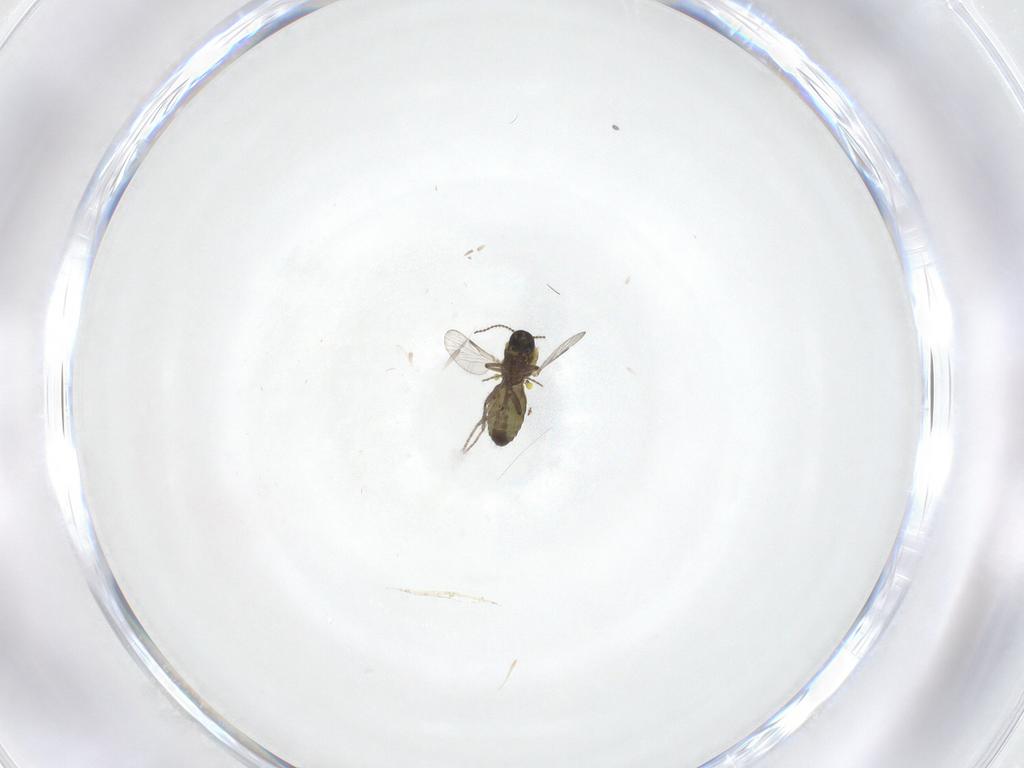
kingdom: Animalia
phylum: Arthropoda
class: Insecta
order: Diptera
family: Ceratopogonidae
